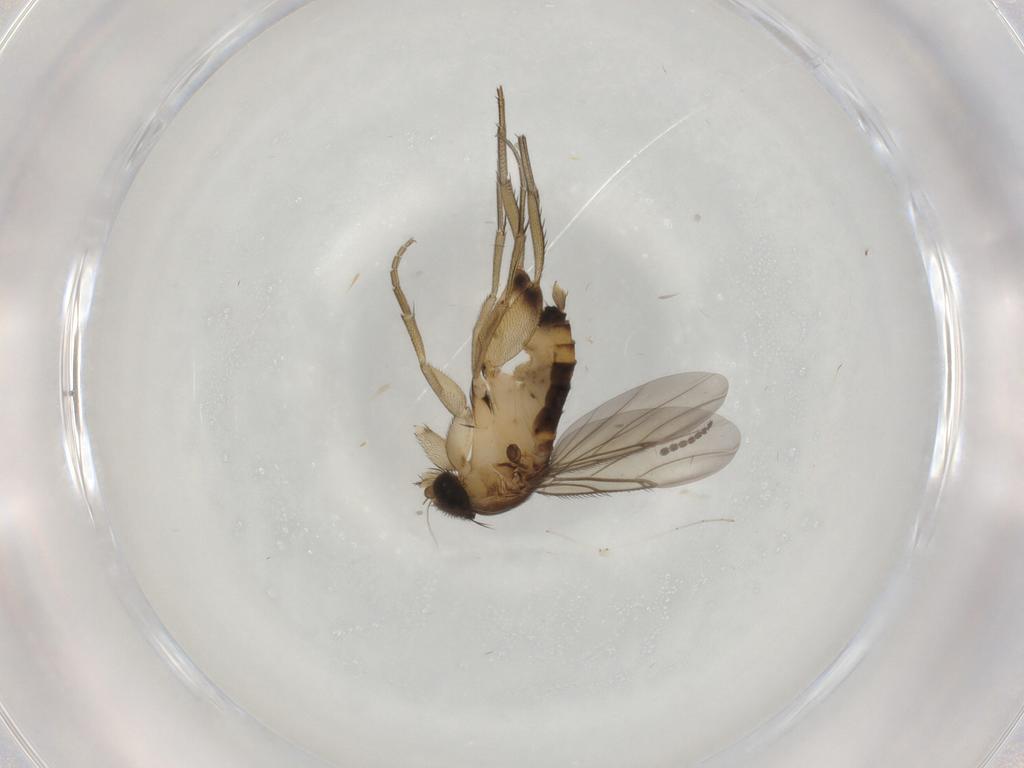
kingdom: Animalia
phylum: Arthropoda
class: Insecta
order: Diptera
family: Phoridae
